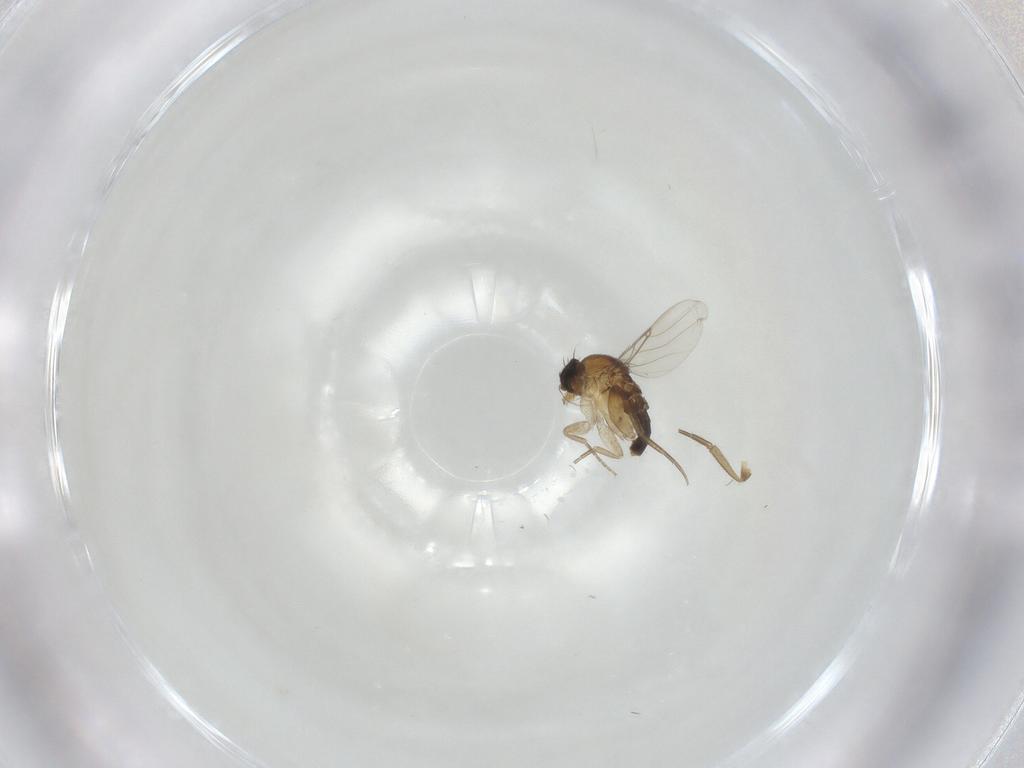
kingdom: Animalia
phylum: Arthropoda
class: Insecta
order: Diptera
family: Phoridae
